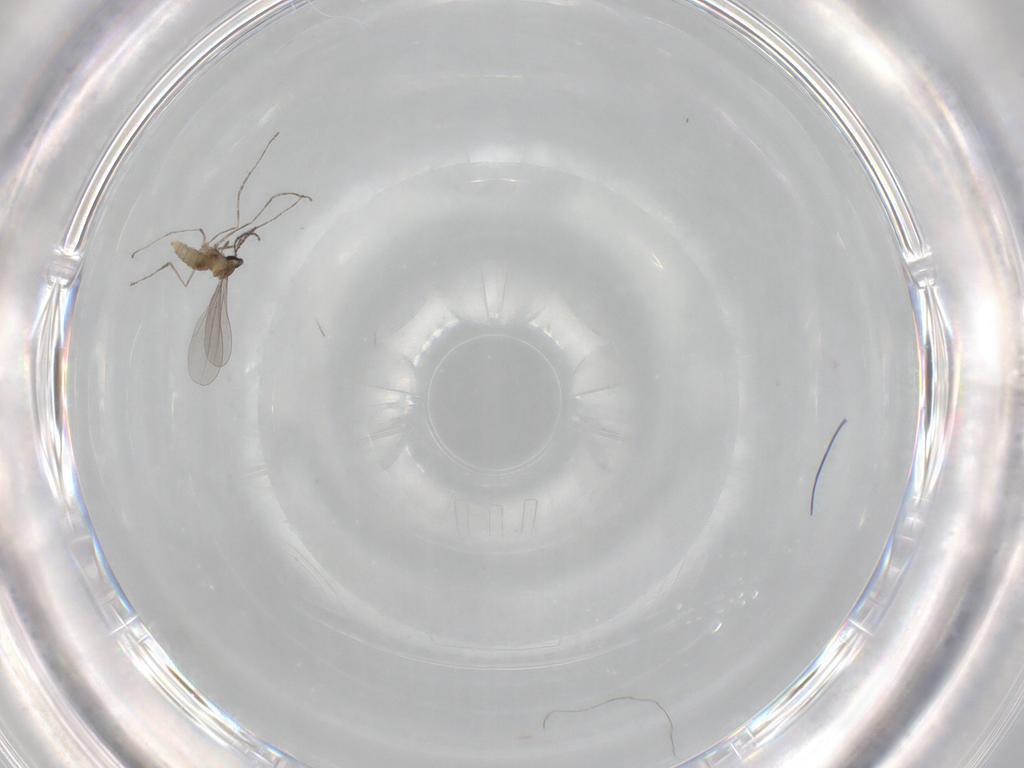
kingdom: Animalia
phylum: Arthropoda
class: Insecta
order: Diptera
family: Cecidomyiidae
